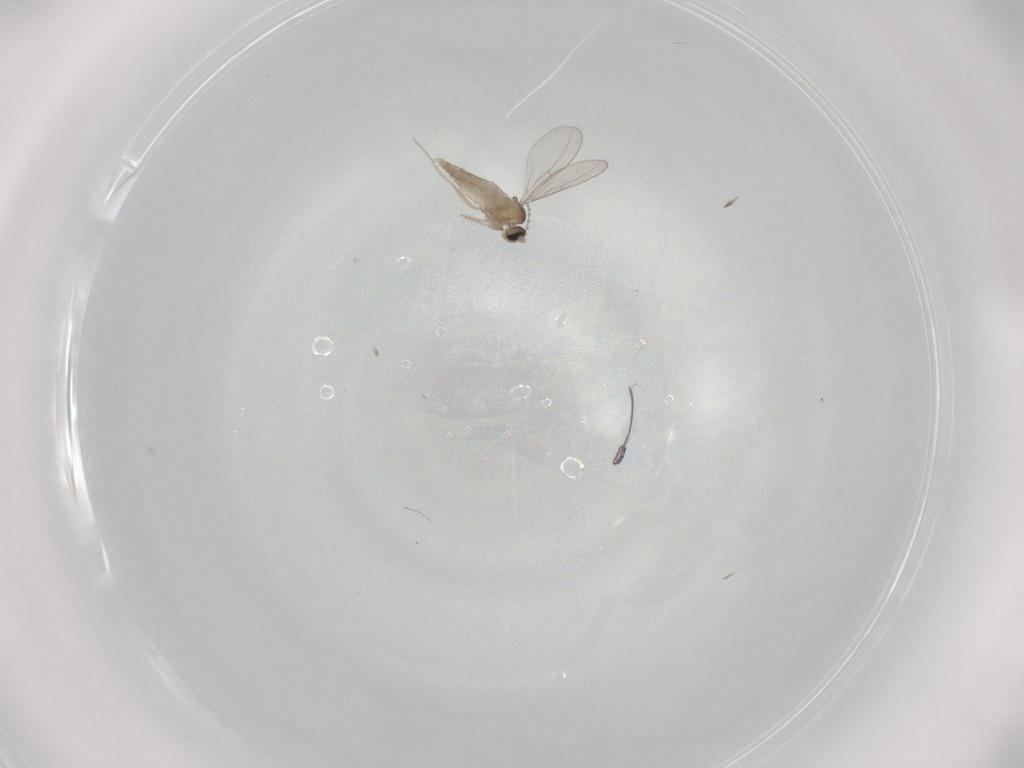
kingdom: Animalia
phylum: Arthropoda
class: Insecta
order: Diptera
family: Cecidomyiidae
